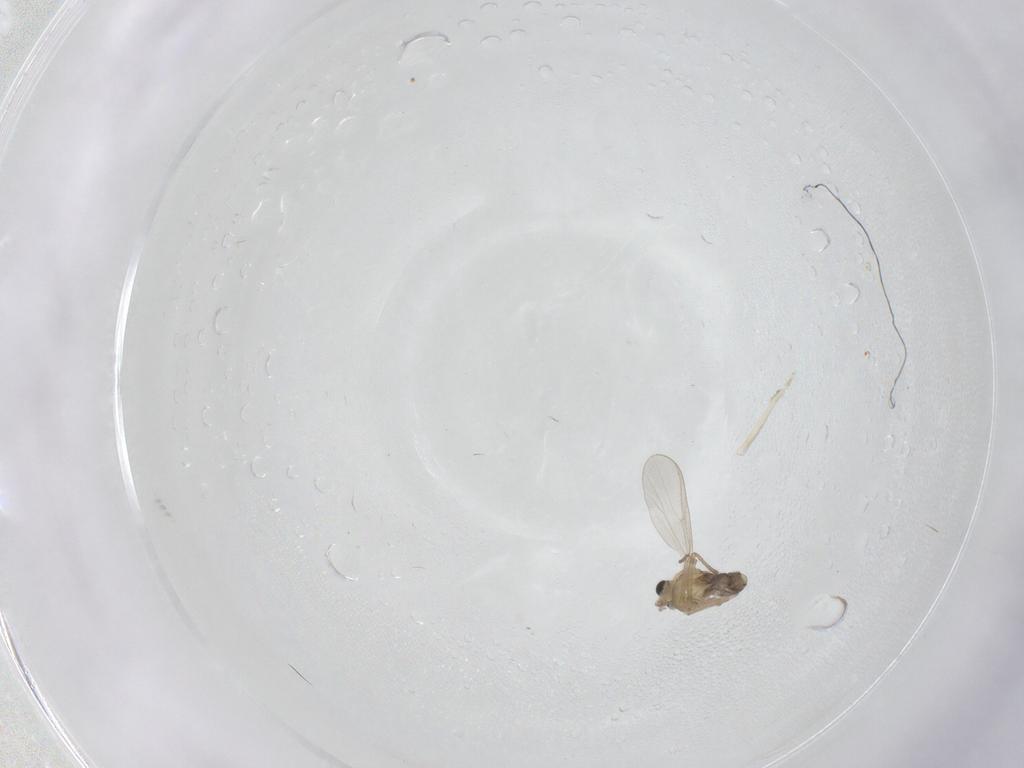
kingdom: Animalia
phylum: Arthropoda
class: Insecta
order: Diptera
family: Chironomidae
